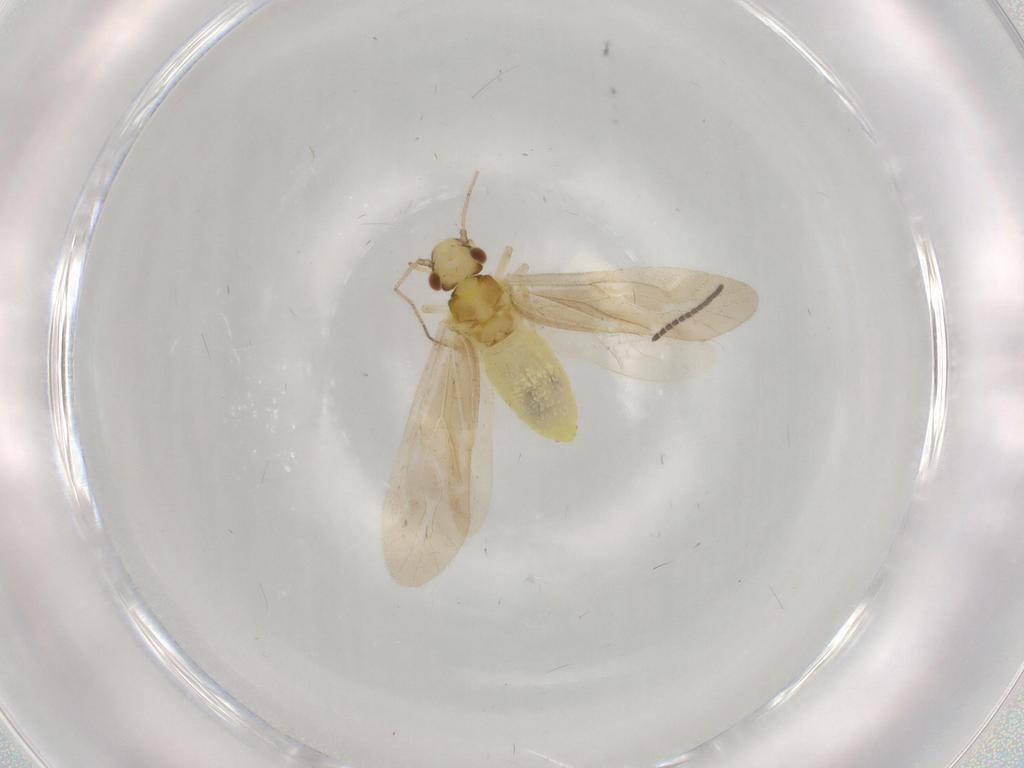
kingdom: Animalia
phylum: Arthropoda
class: Insecta
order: Psocodea
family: Caeciliusidae
